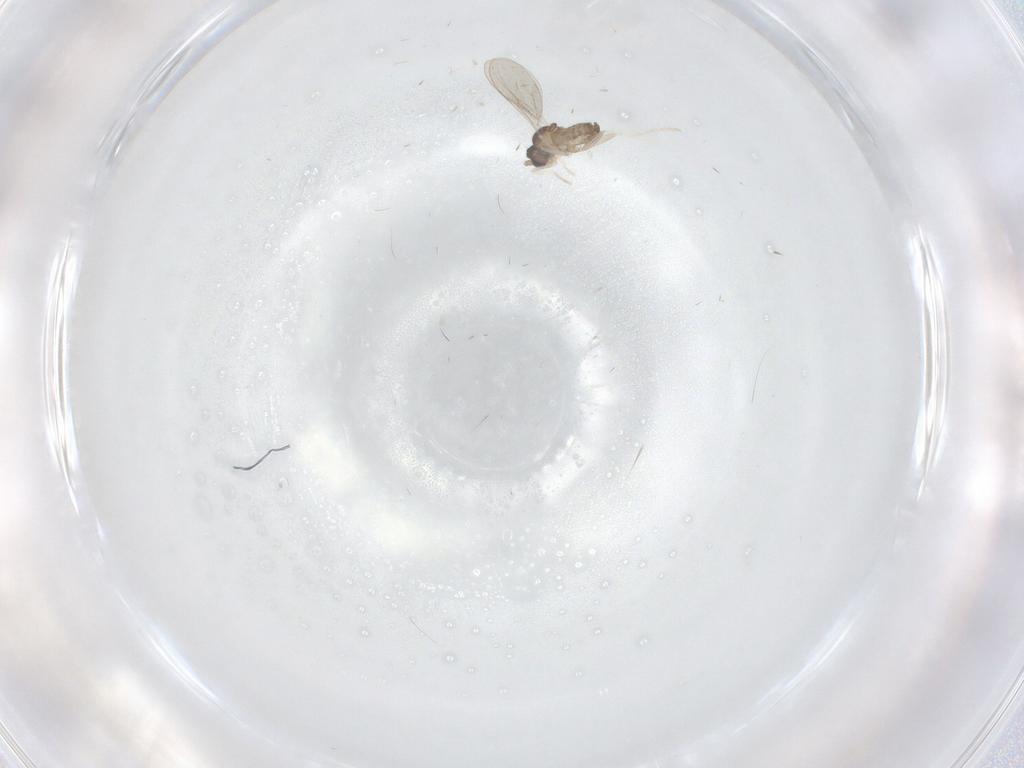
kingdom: Animalia
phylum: Arthropoda
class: Insecta
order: Diptera
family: Cecidomyiidae
